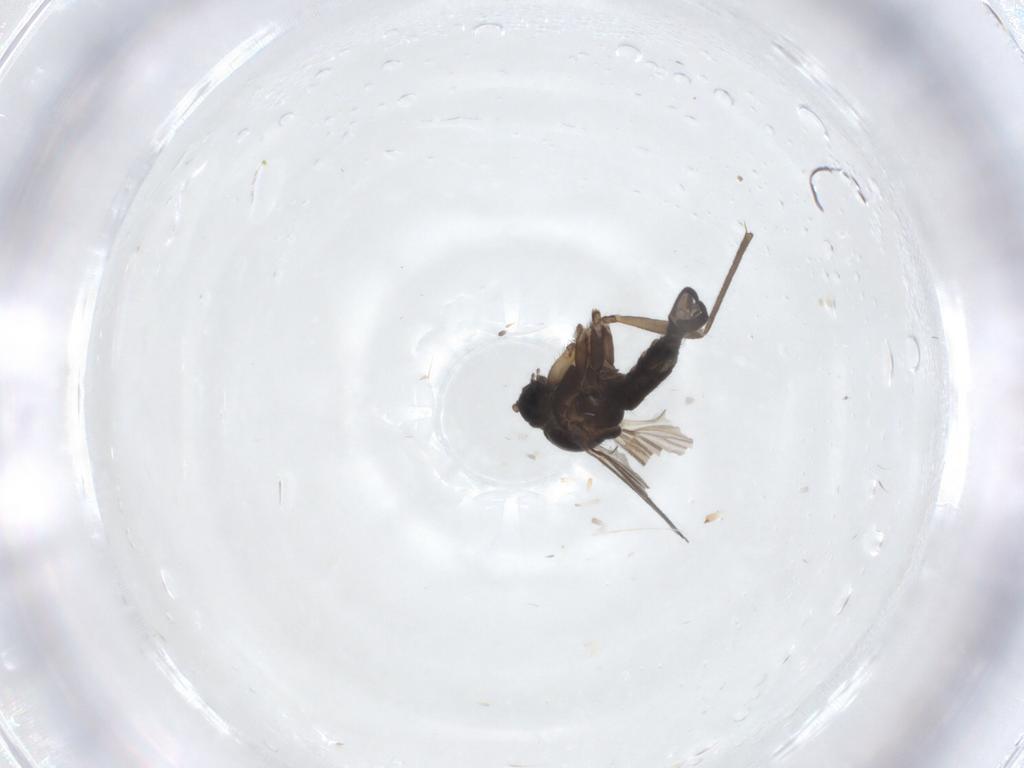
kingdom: Animalia
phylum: Arthropoda
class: Insecta
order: Diptera
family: Sciaridae
